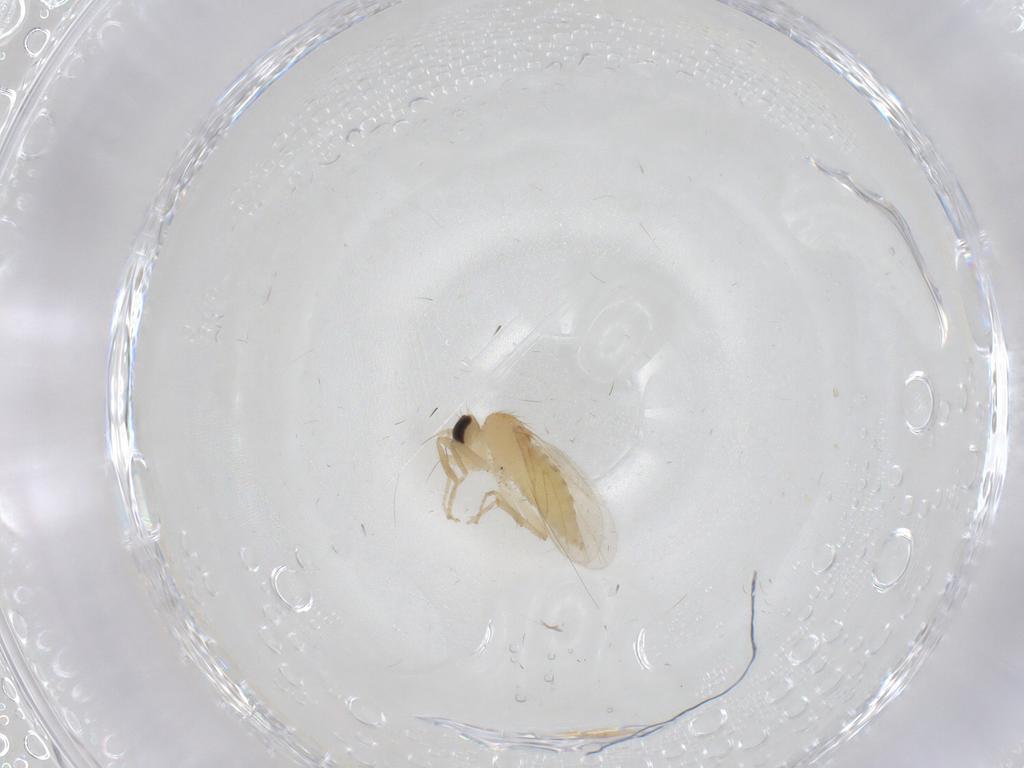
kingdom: Animalia
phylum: Arthropoda
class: Insecta
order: Diptera
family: Hybotidae
